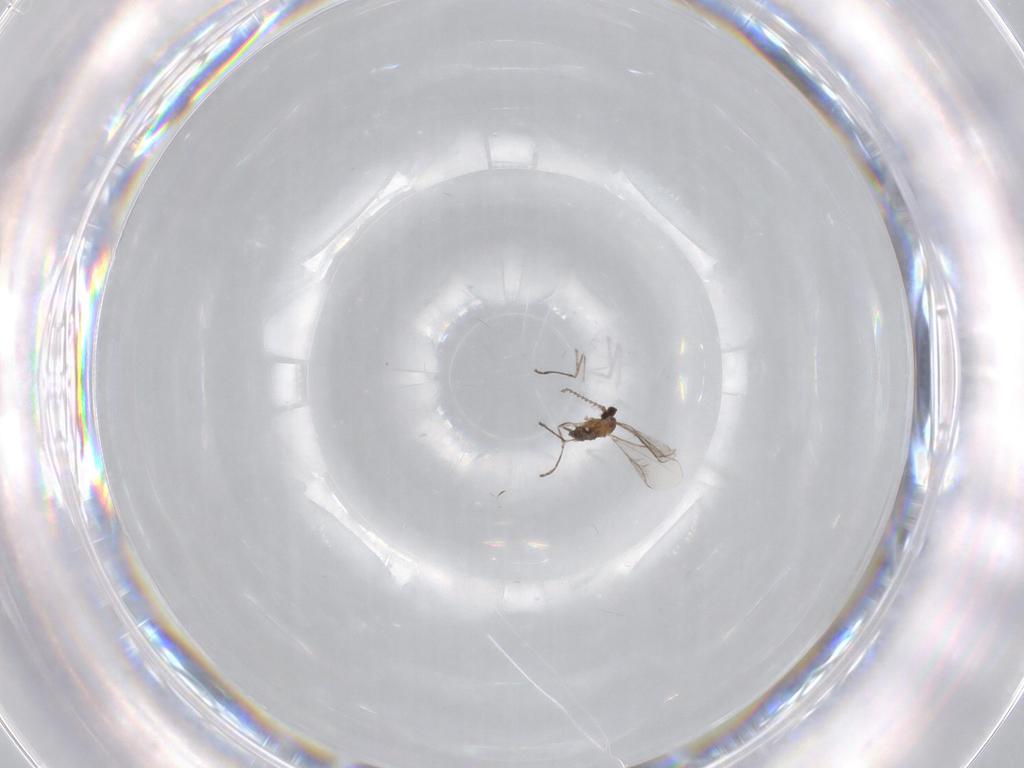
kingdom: Animalia
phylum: Arthropoda
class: Insecta
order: Diptera
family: Cecidomyiidae
